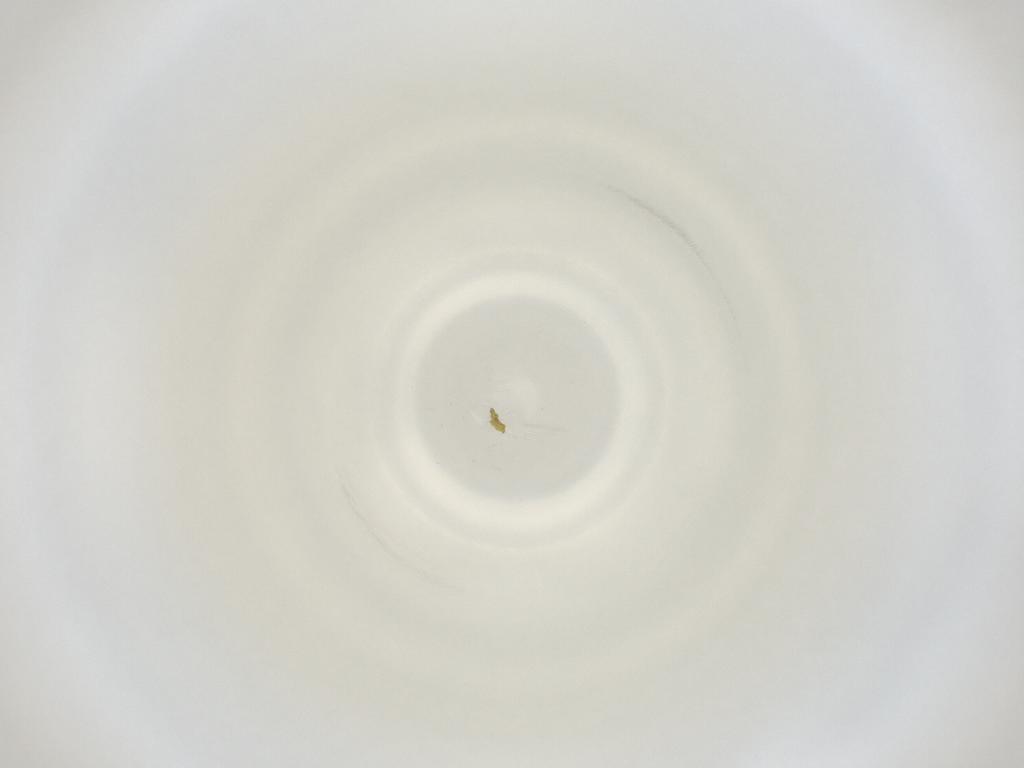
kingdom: Animalia
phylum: Arthropoda
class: Insecta
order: Diptera
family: Cecidomyiidae
